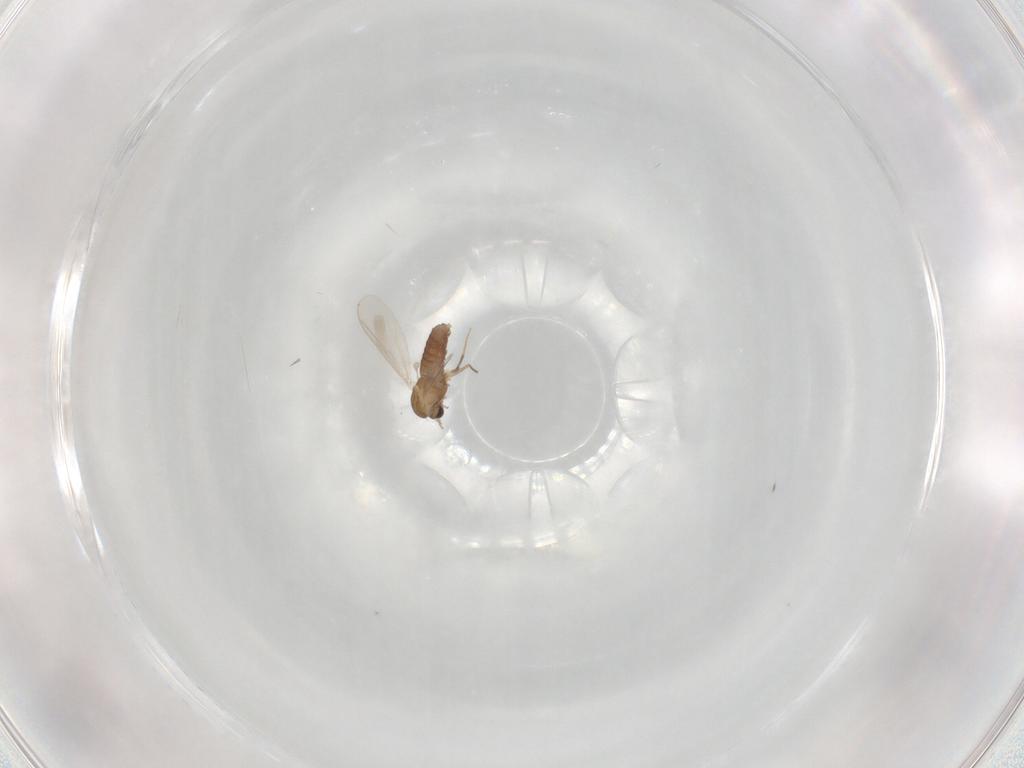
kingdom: Animalia
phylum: Arthropoda
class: Insecta
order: Diptera
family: Chironomidae
